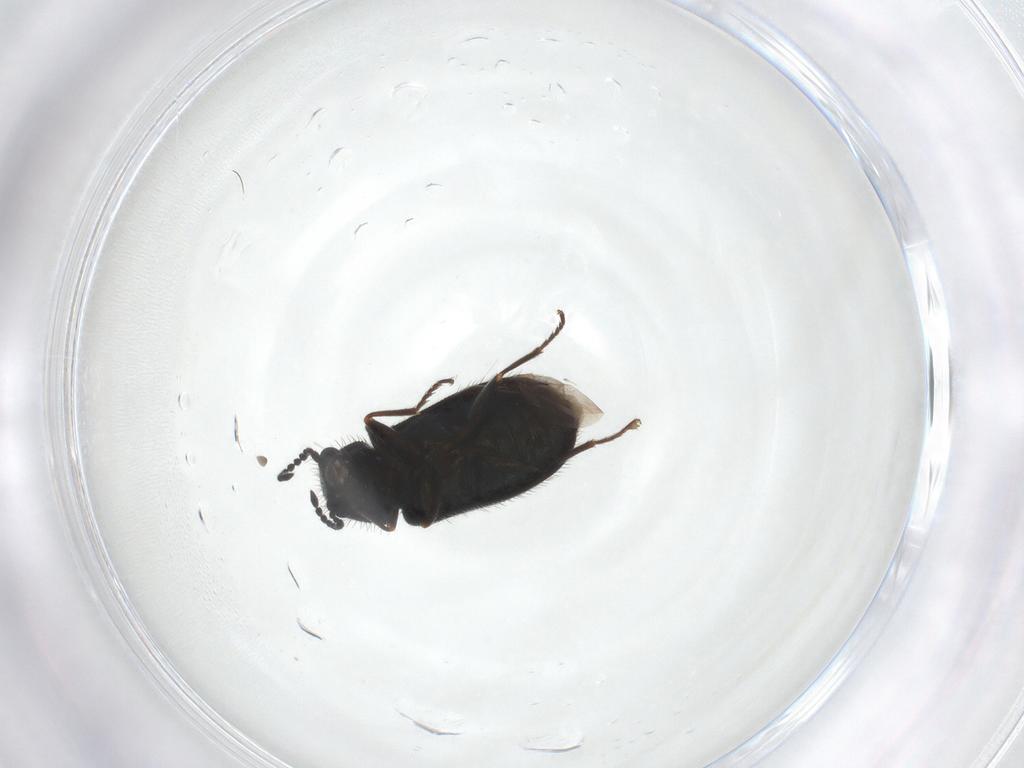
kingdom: Animalia
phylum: Arthropoda
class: Insecta
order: Coleoptera
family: Melyridae
